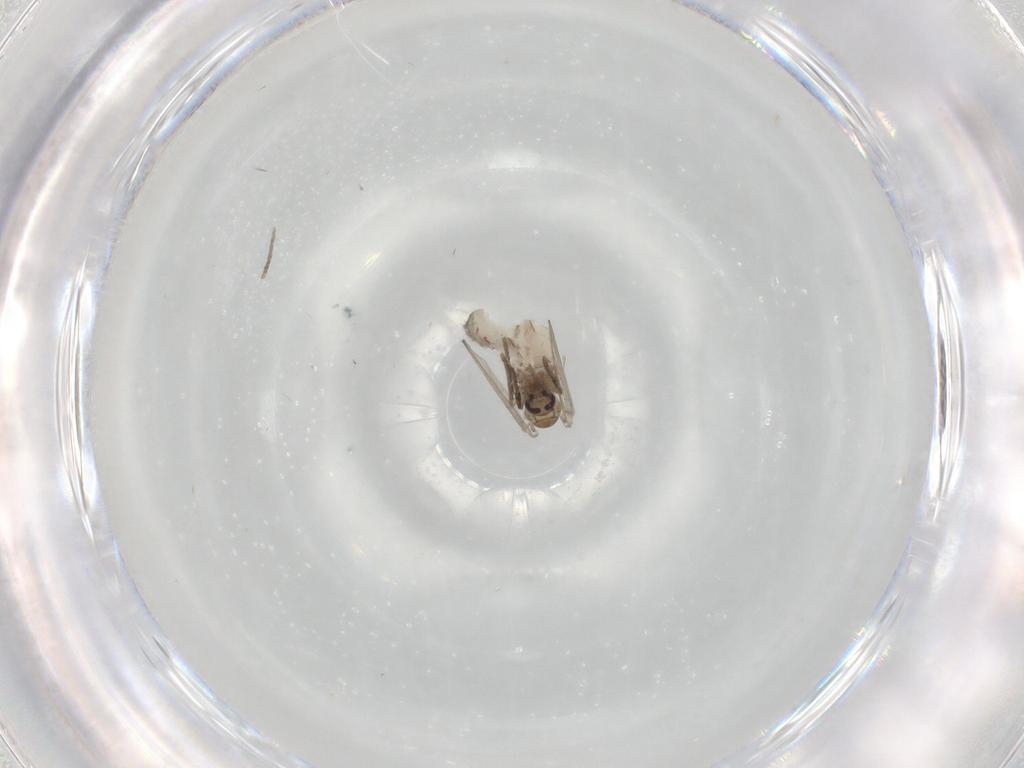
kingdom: Animalia
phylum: Arthropoda
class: Insecta
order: Diptera
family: Psychodidae
